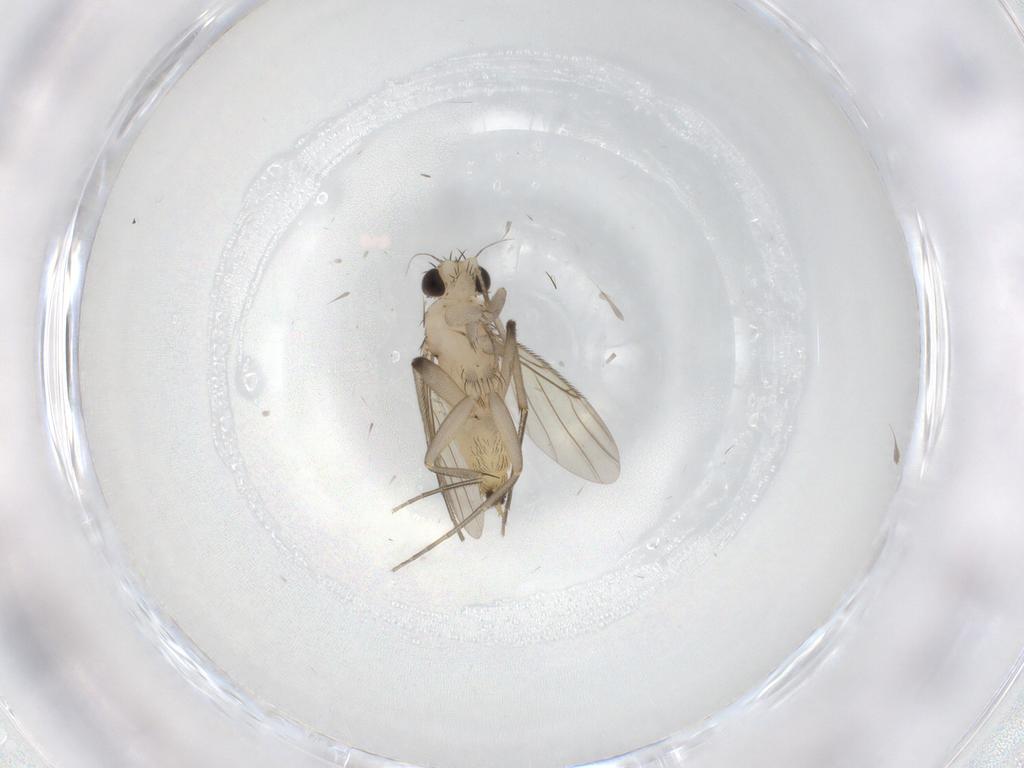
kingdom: Animalia
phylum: Arthropoda
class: Insecta
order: Diptera
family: Phoridae
